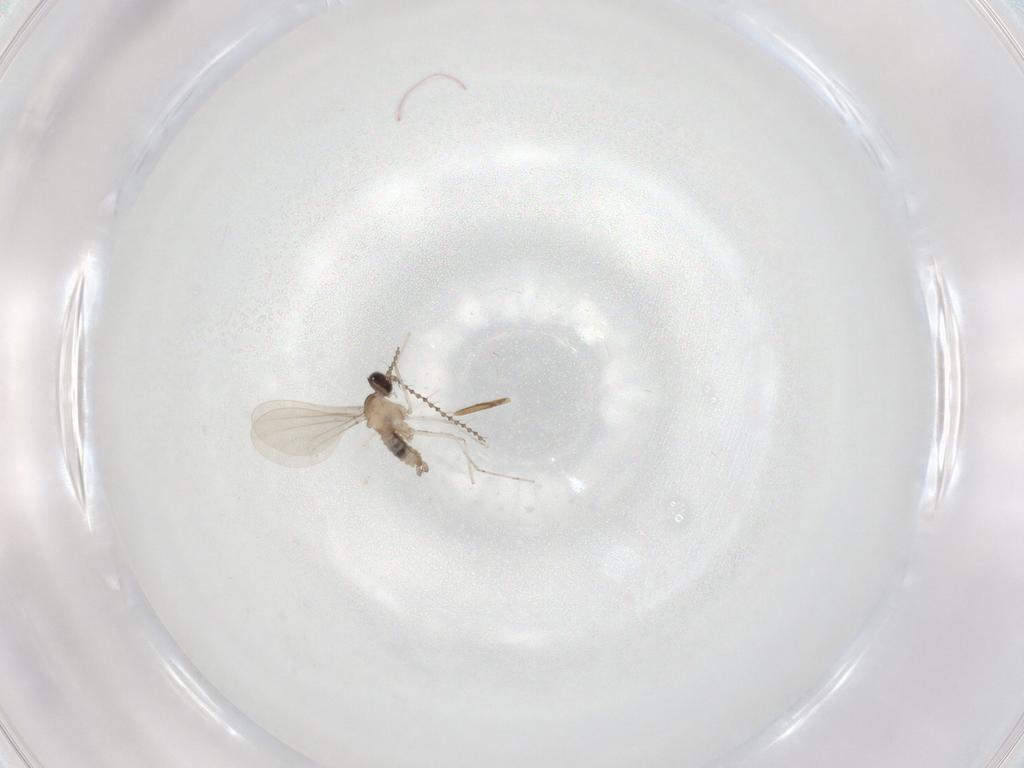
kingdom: Animalia
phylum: Arthropoda
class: Insecta
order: Diptera
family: Cecidomyiidae
